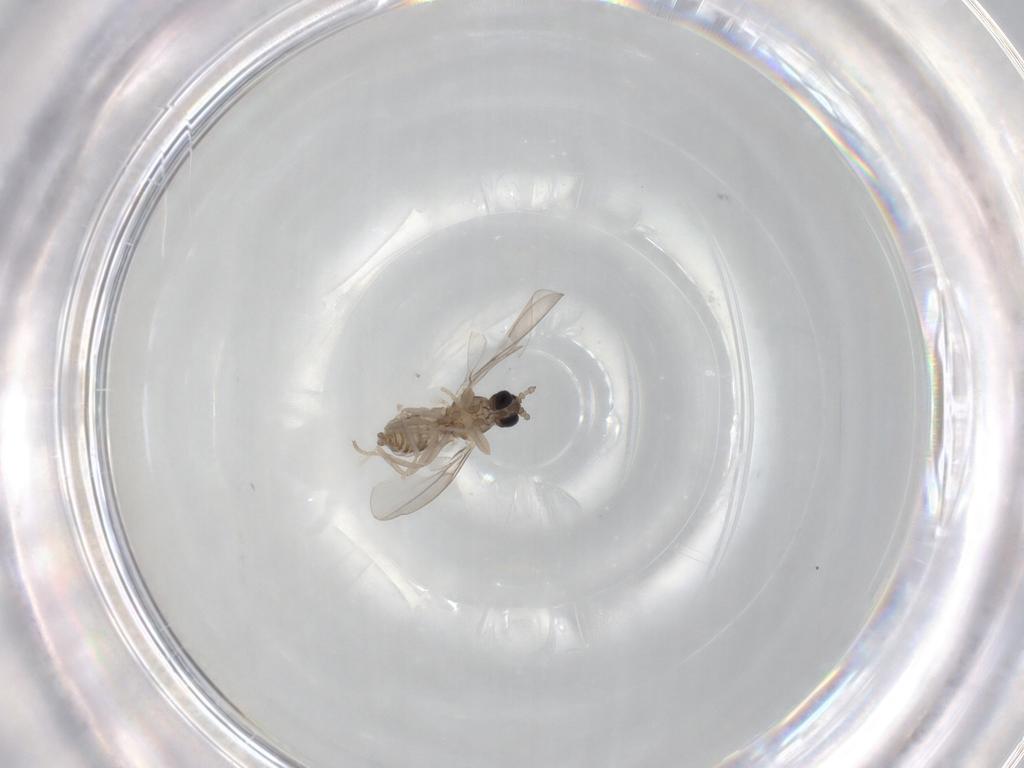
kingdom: Animalia
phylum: Arthropoda
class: Insecta
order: Diptera
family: Cecidomyiidae
